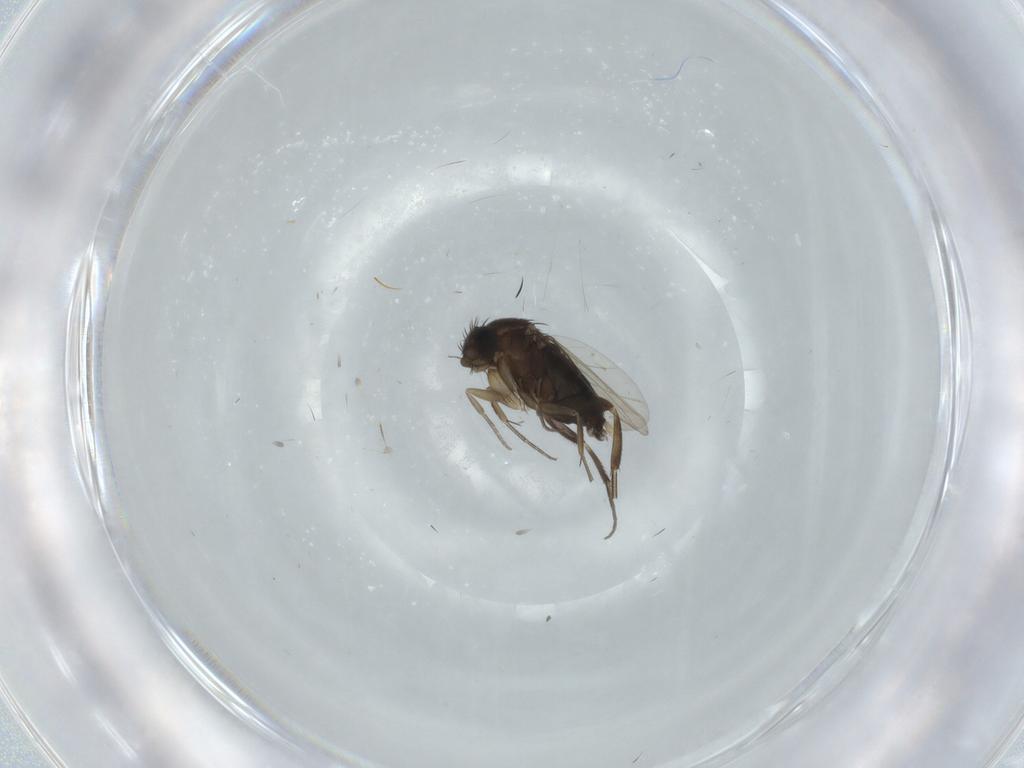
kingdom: Animalia
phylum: Arthropoda
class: Insecta
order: Diptera
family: Phoridae
